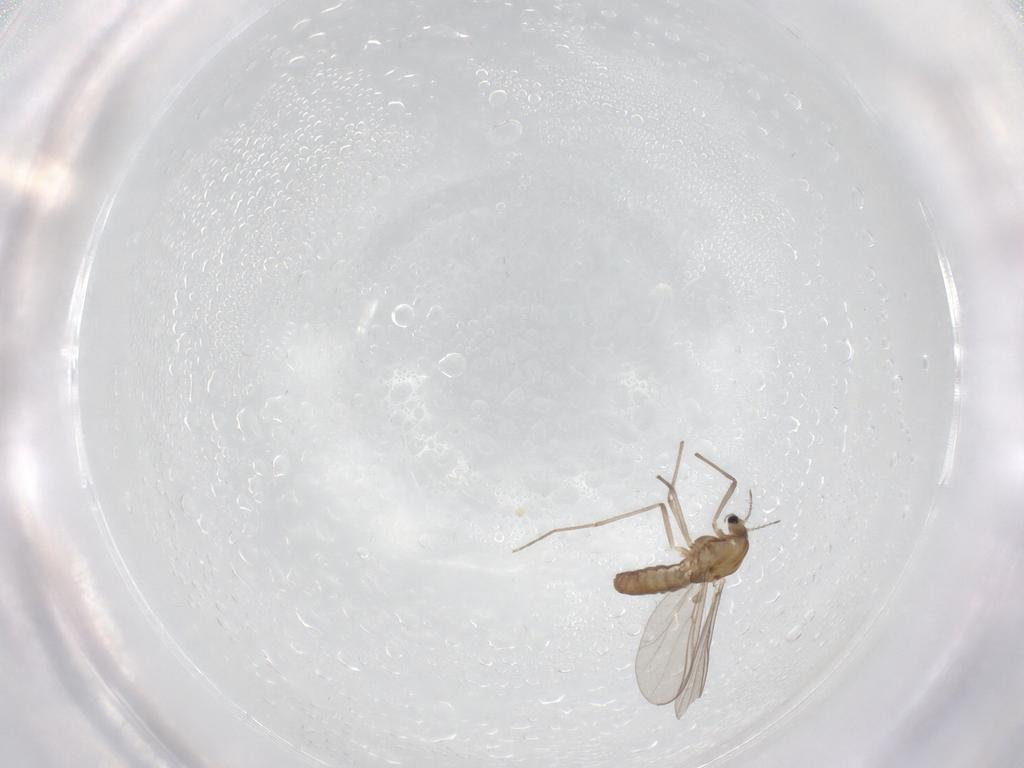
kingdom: Animalia
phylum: Arthropoda
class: Insecta
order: Diptera
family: Chironomidae
